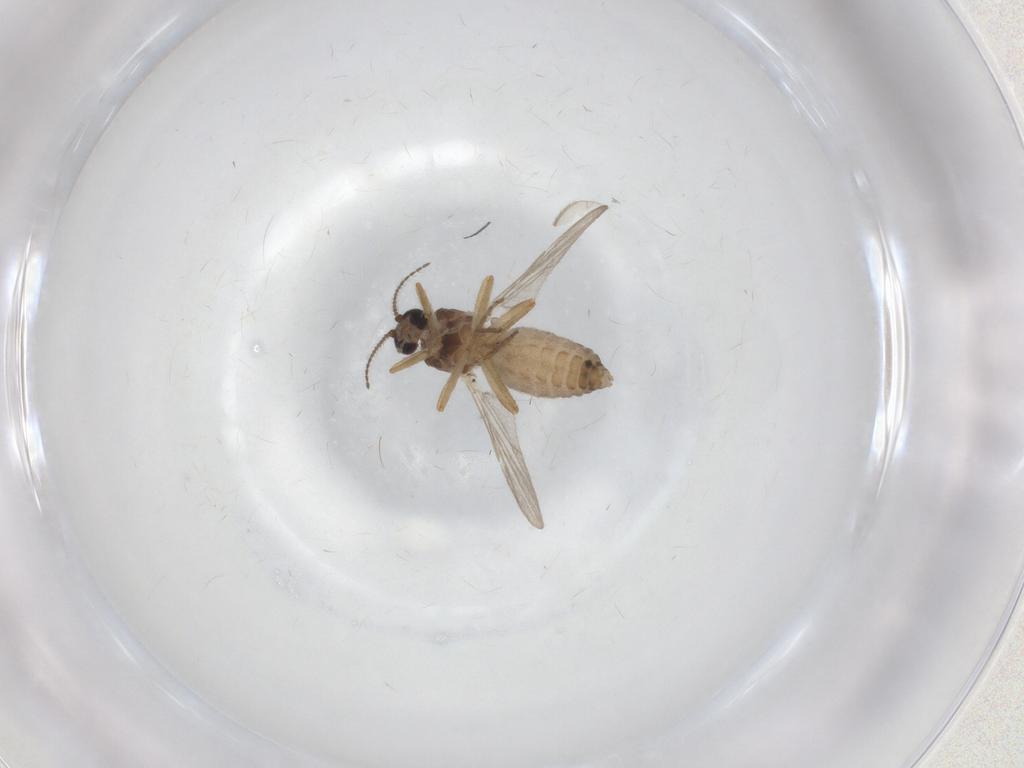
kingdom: Animalia
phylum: Arthropoda
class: Insecta
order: Diptera
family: Ceratopogonidae
